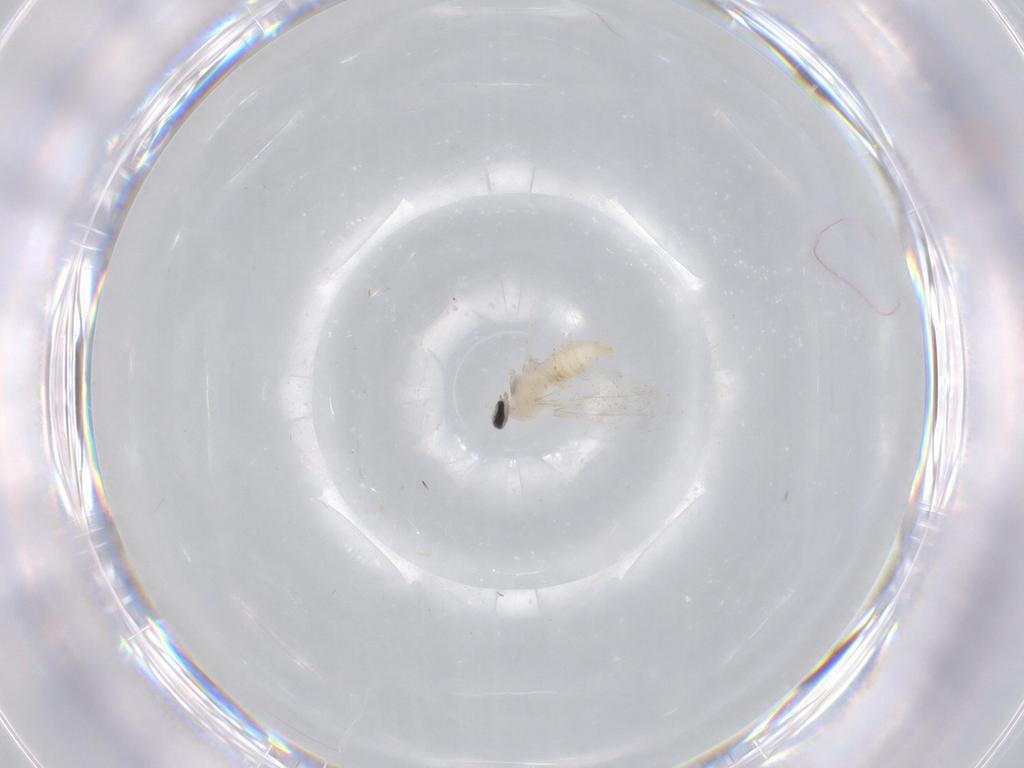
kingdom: Animalia
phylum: Arthropoda
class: Insecta
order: Diptera
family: Cecidomyiidae
